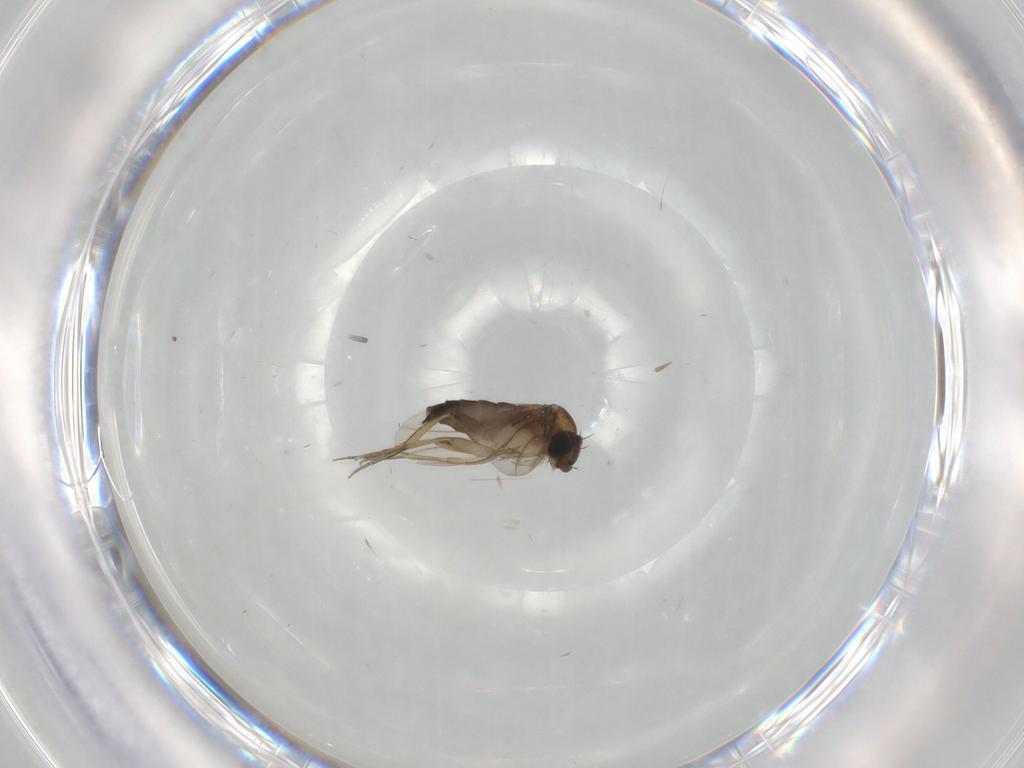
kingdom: Animalia
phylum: Arthropoda
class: Insecta
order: Diptera
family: Phoridae
